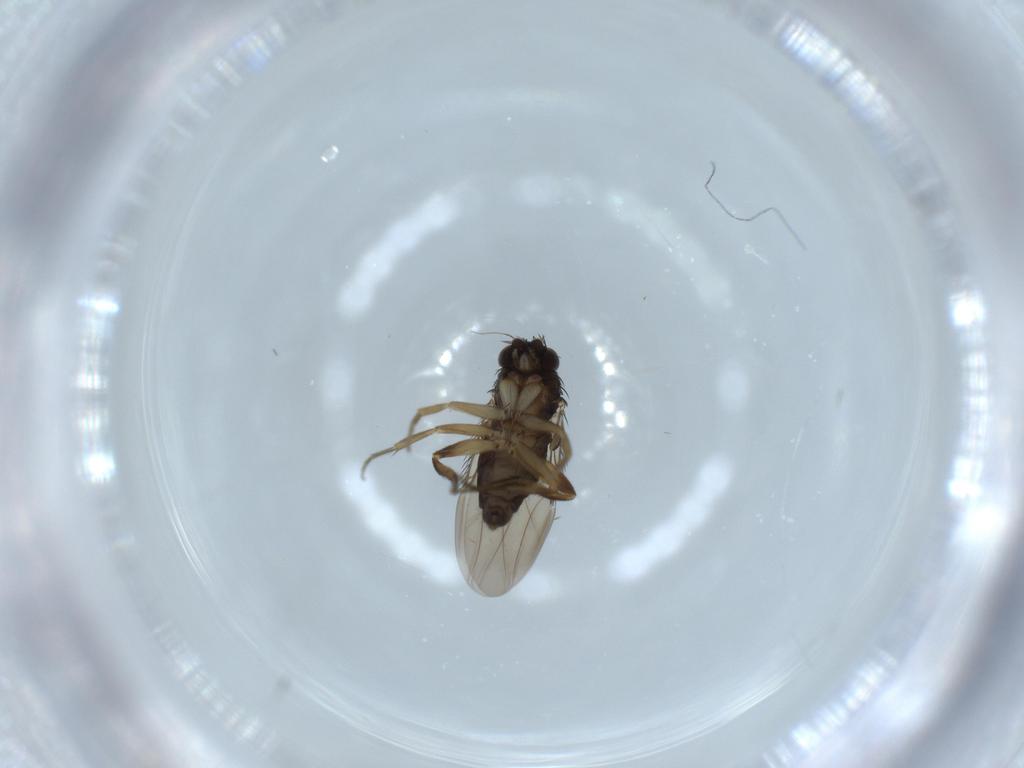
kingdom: Animalia
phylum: Arthropoda
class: Insecta
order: Diptera
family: Phoridae
